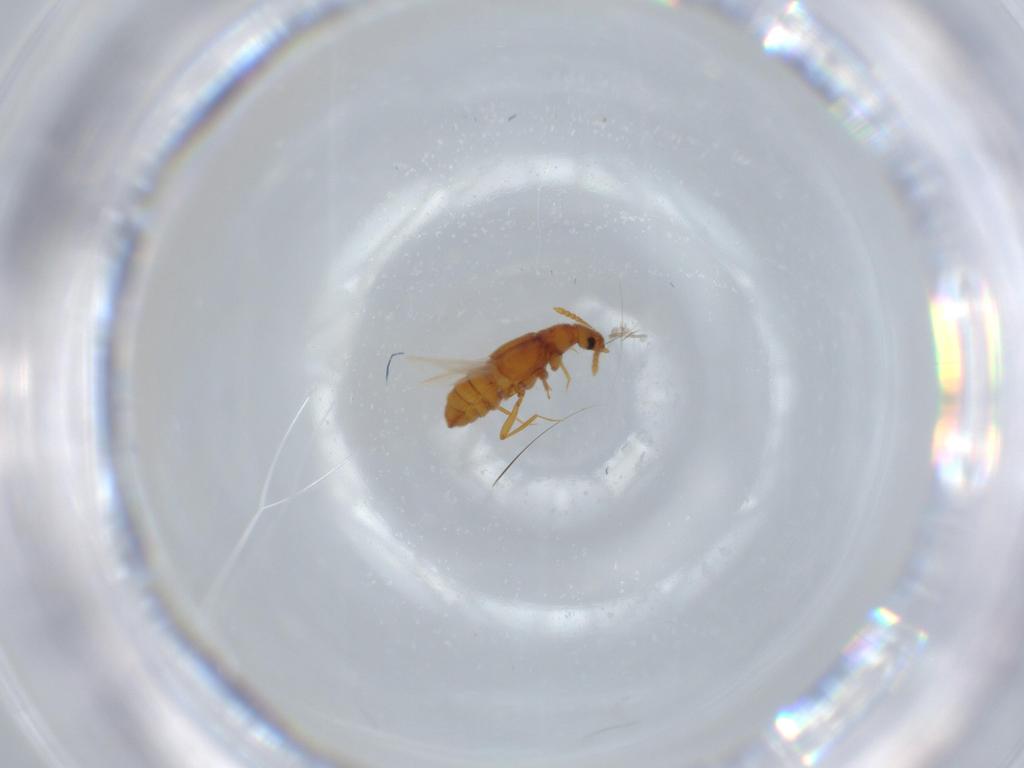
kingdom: Animalia
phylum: Arthropoda
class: Insecta
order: Coleoptera
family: Staphylinidae
